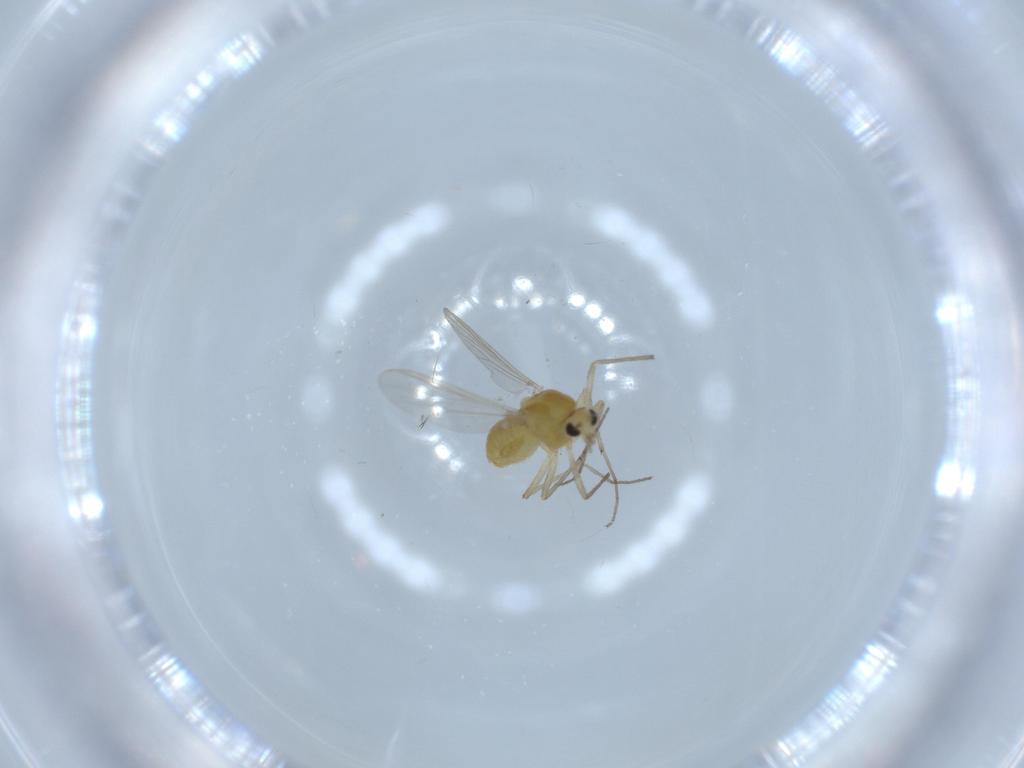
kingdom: Animalia
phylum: Arthropoda
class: Insecta
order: Diptera
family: Chironomidae
